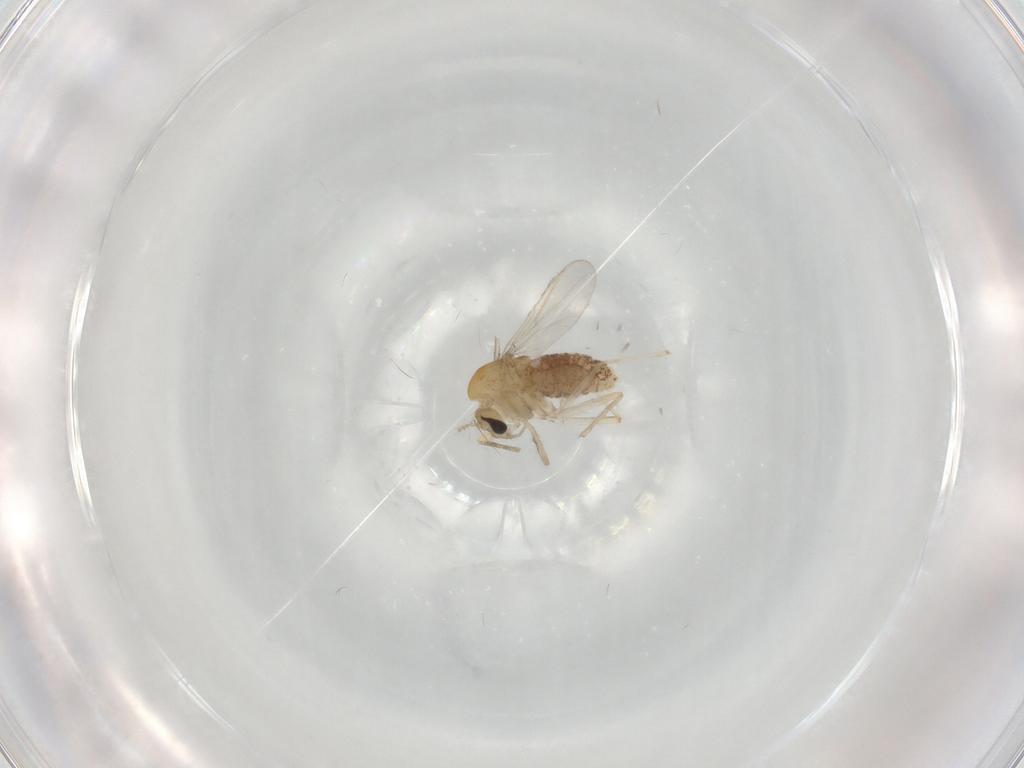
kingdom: Animalia
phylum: Arthropoda
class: Insecta
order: Diptera
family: Chironomidae
